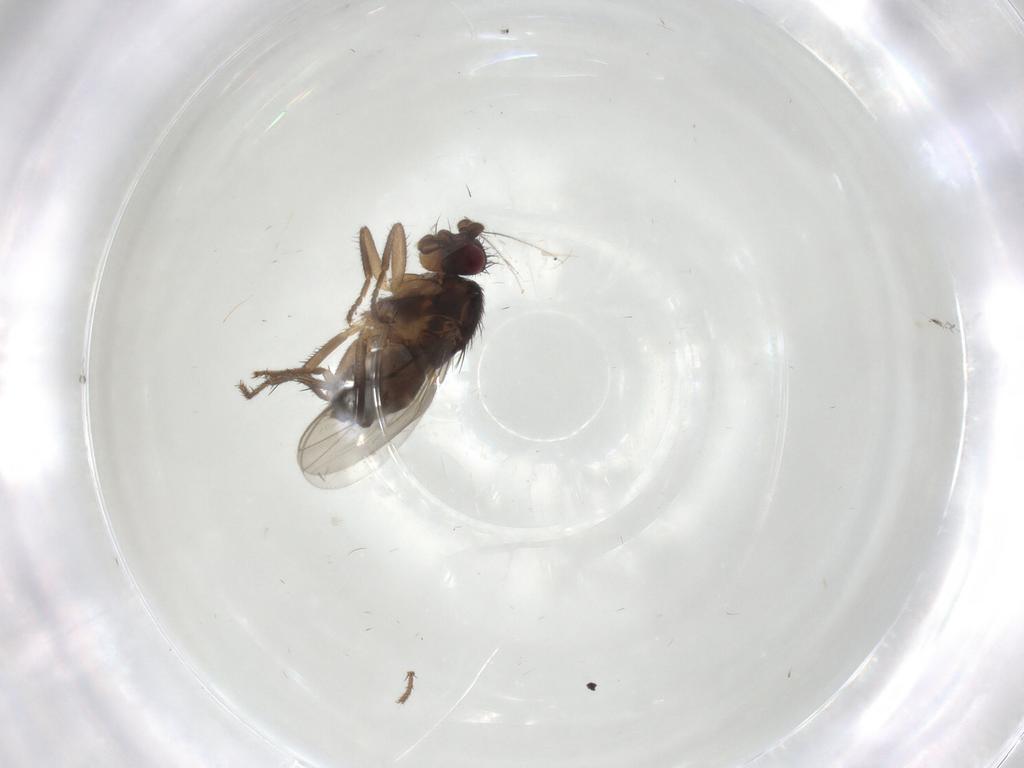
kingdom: Animalia
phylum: Arthropoda
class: Insecta
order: Diptera
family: Sphaeroceridae
